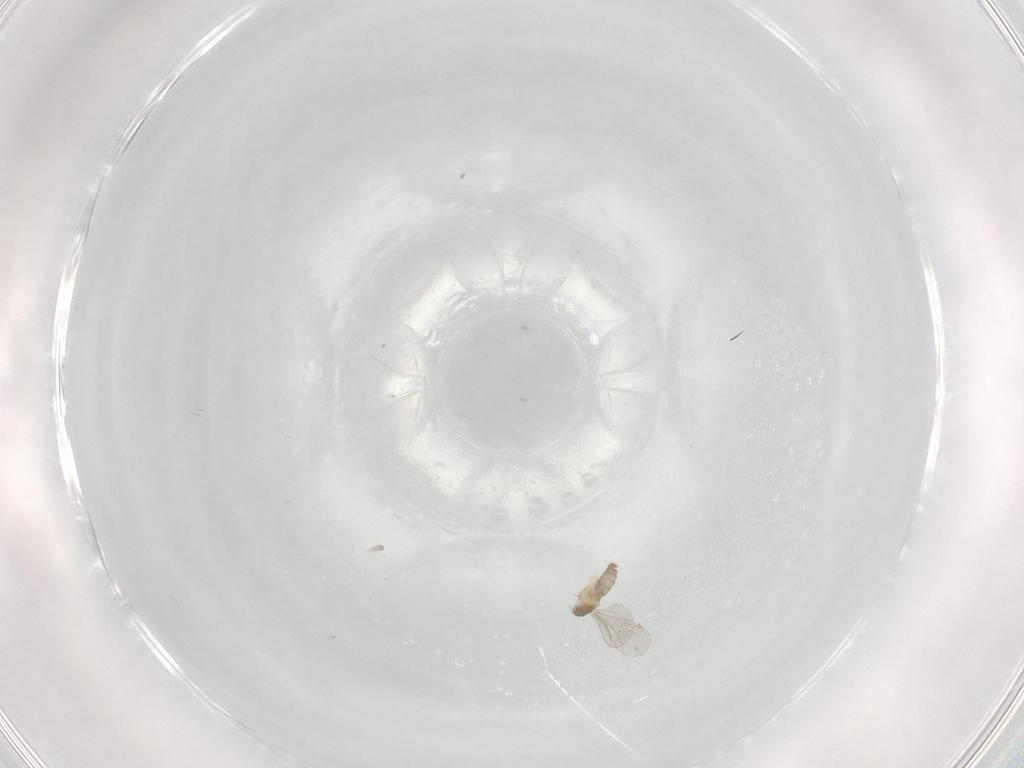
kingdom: Animalia
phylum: Arthropoda
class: Insecta
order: Diptera
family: Cecidomyiidae
